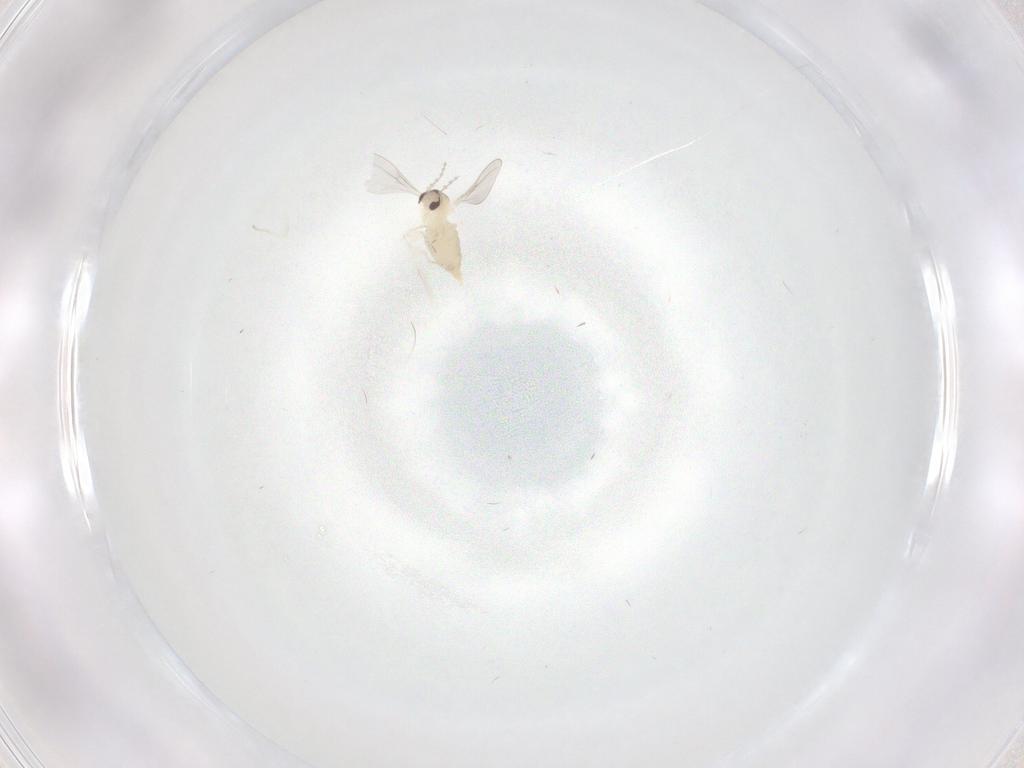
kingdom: Animalia
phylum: Arthropoda
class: Insecta
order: Diptera
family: Cecidomyiidae
